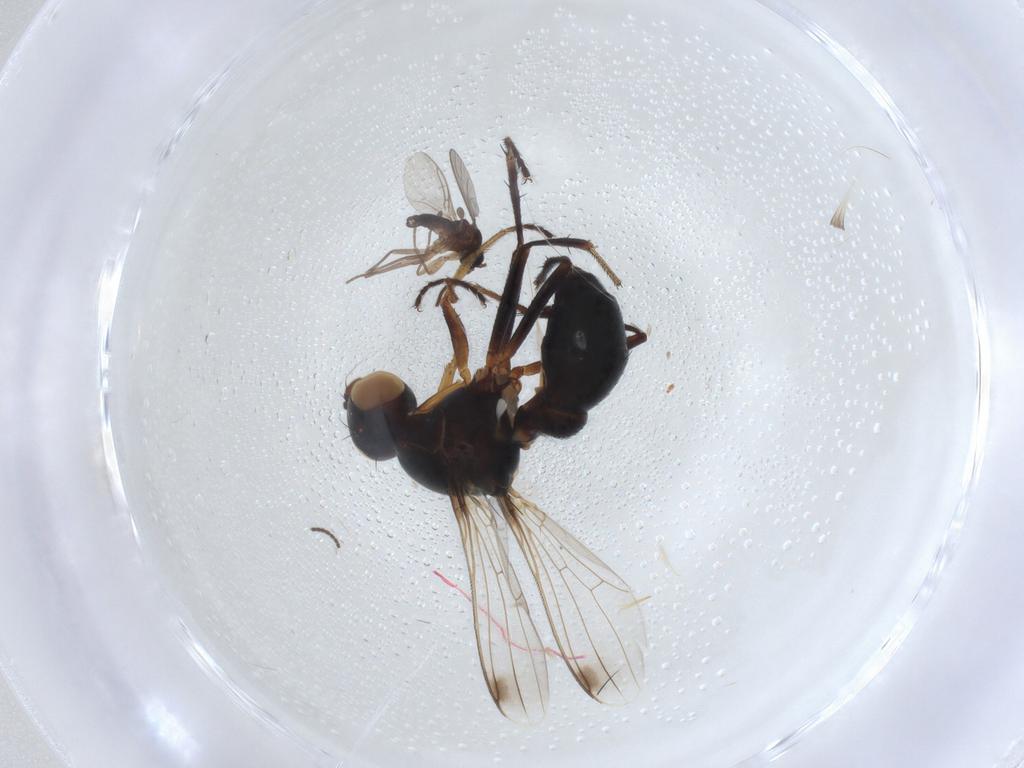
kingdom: Animalia
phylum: Arthropoda
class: Insecta
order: Diptera
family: Sepsidae
